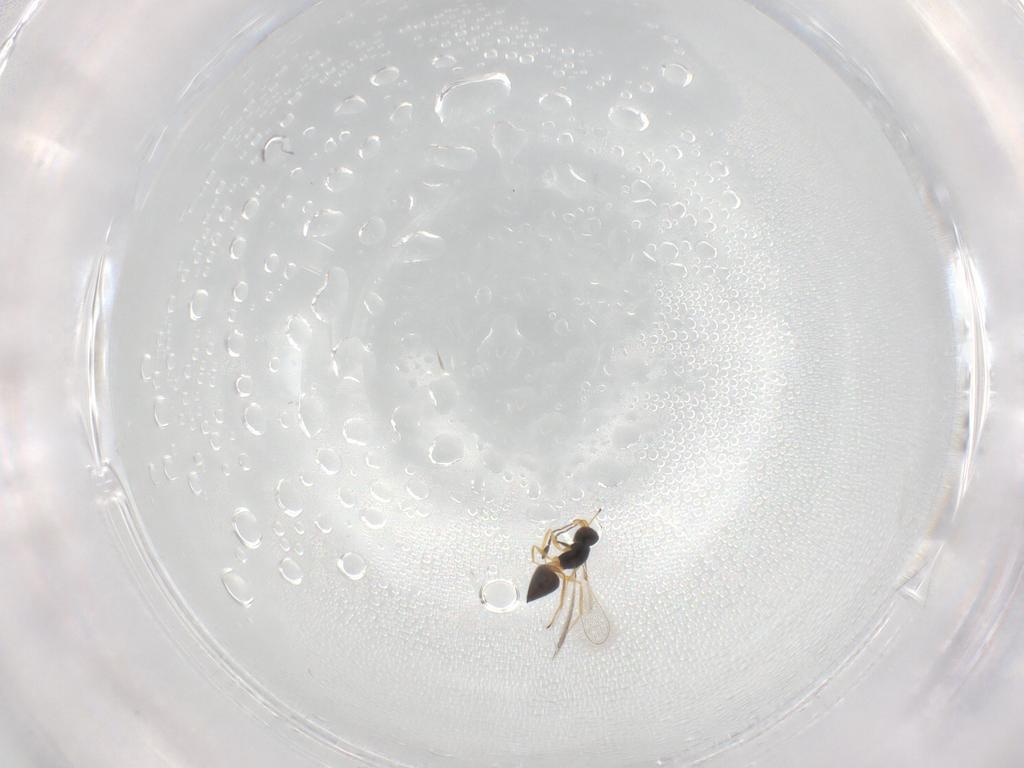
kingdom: Animalia
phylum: Arthropoda
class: Insecta
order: Hymenoptera
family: Mymaridae
